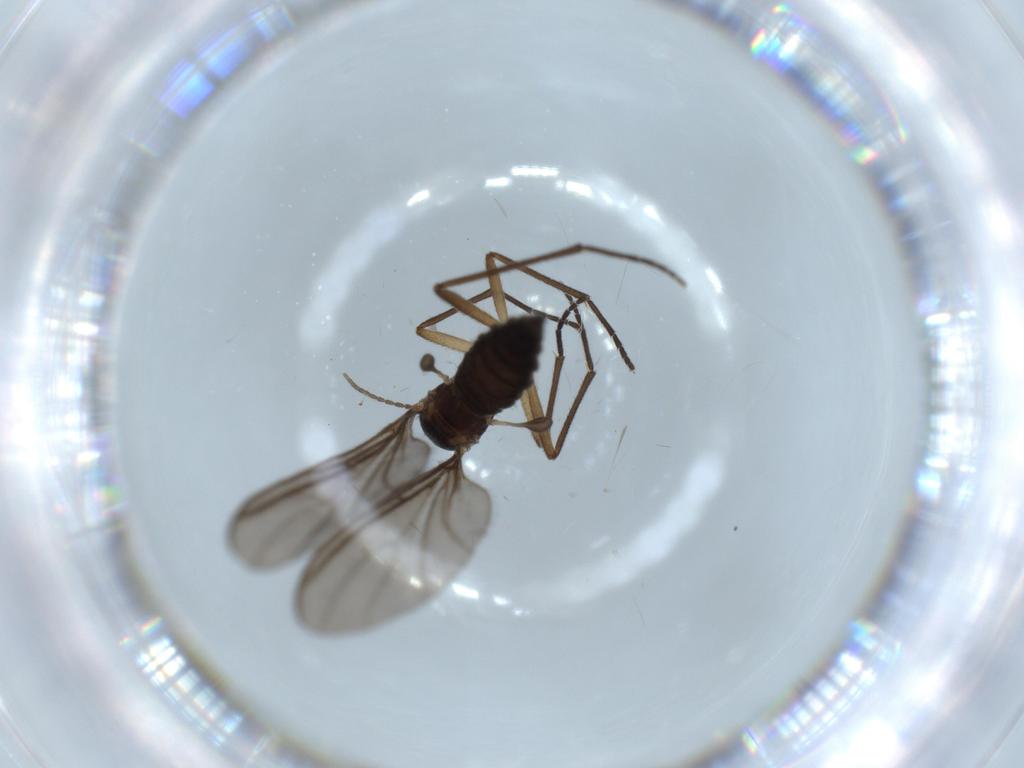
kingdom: Animalia
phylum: Arthropoda
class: Insecta
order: Diptera
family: Sciaridae
